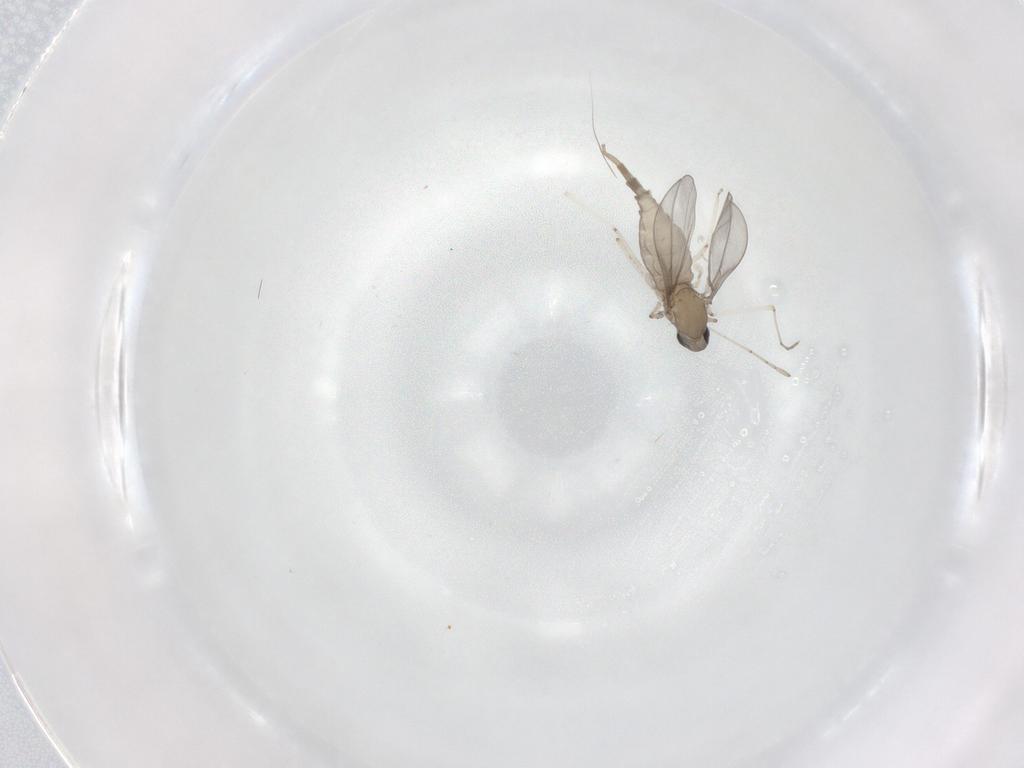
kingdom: Animalia
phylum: Arthropoda
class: Insecta
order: Diptera
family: Cecidomyiidae
